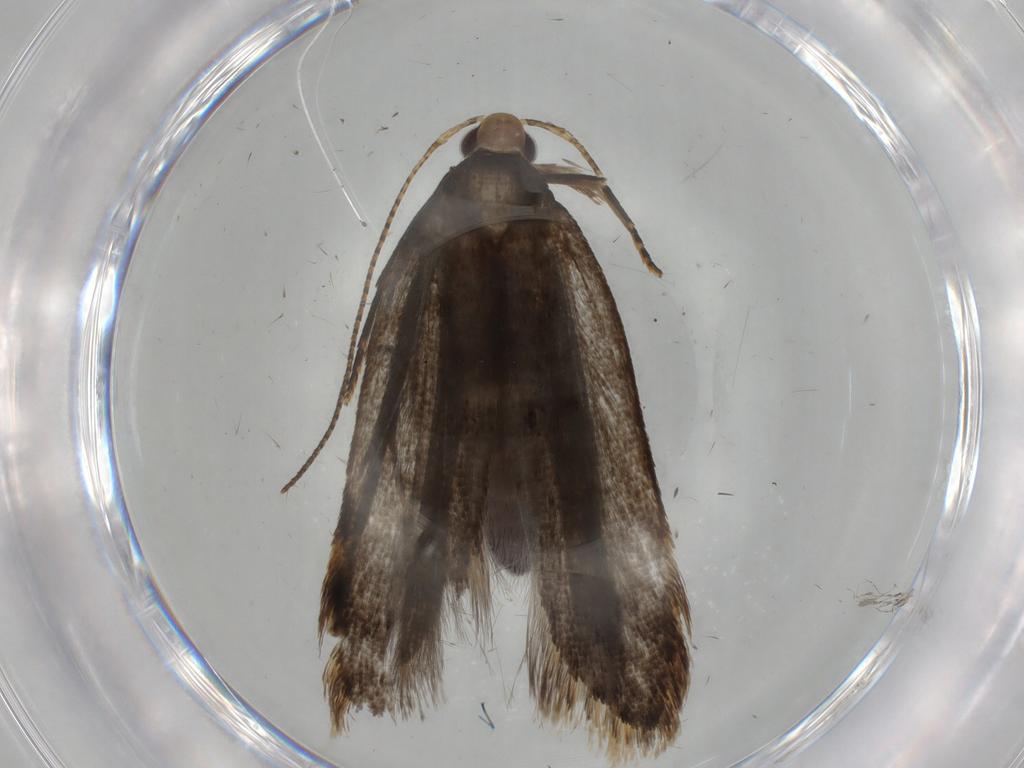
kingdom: Animalia
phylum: Arthropoda
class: Insecta
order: Lepidoptera
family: Gelechiidae
